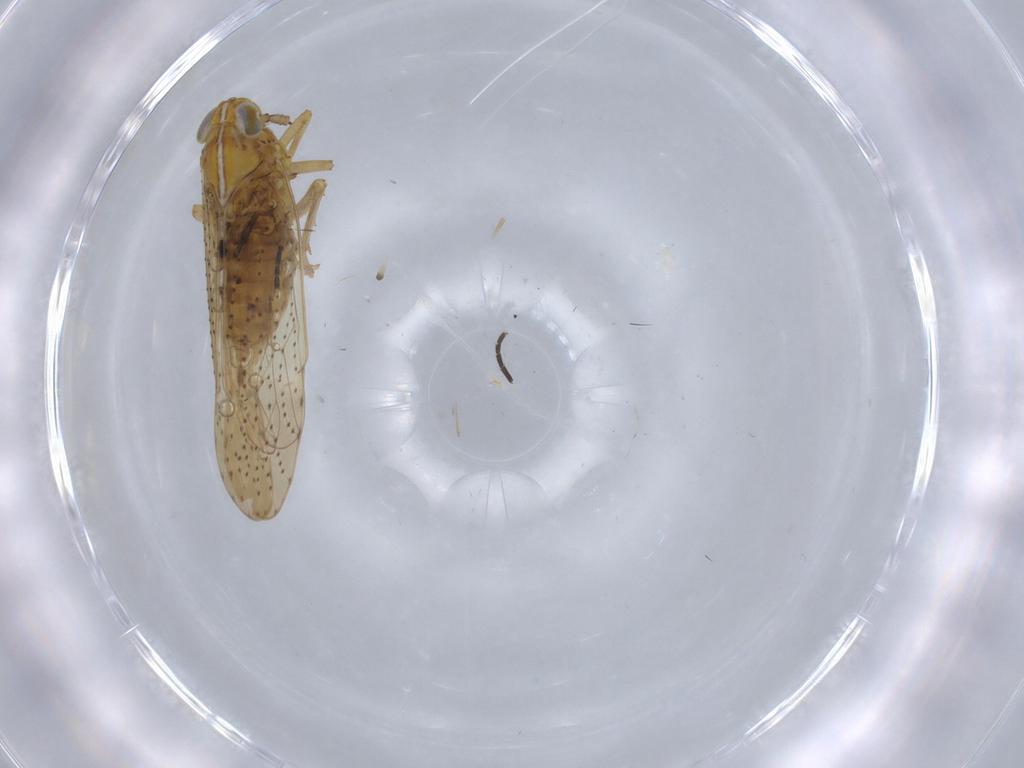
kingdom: Animalia
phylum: Arthropoda
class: Insecta
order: Hemiptera
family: Delphacidae
